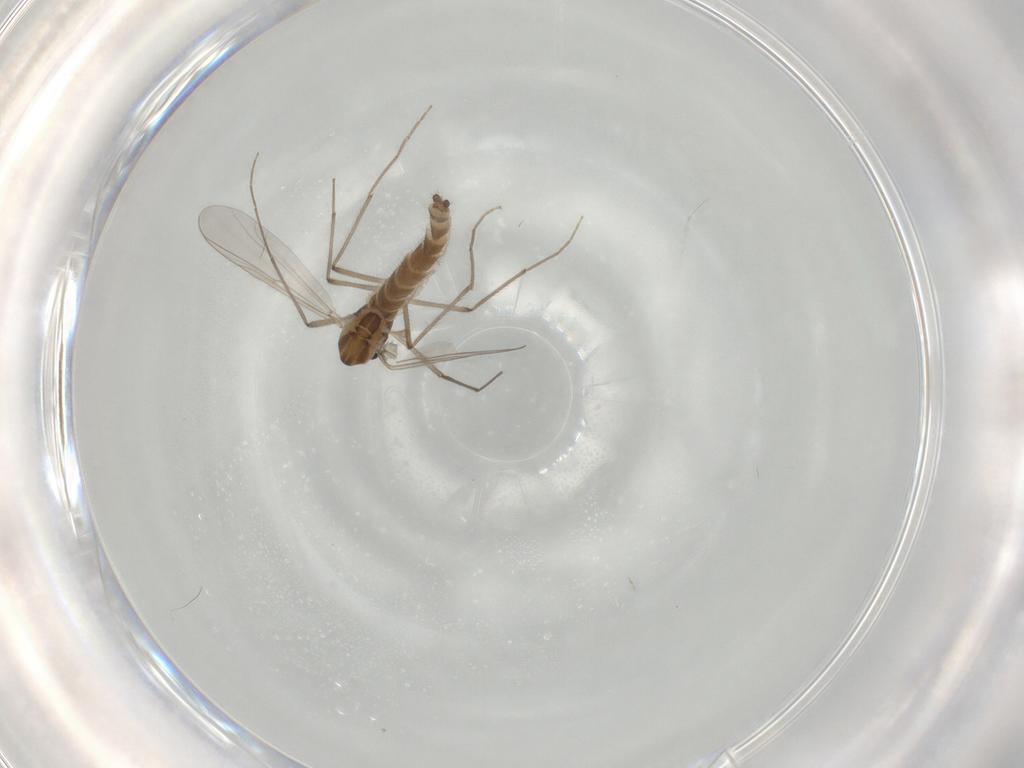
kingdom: Animalia
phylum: Arthropoda
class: Insecta
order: Diptera
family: Chironomidae
